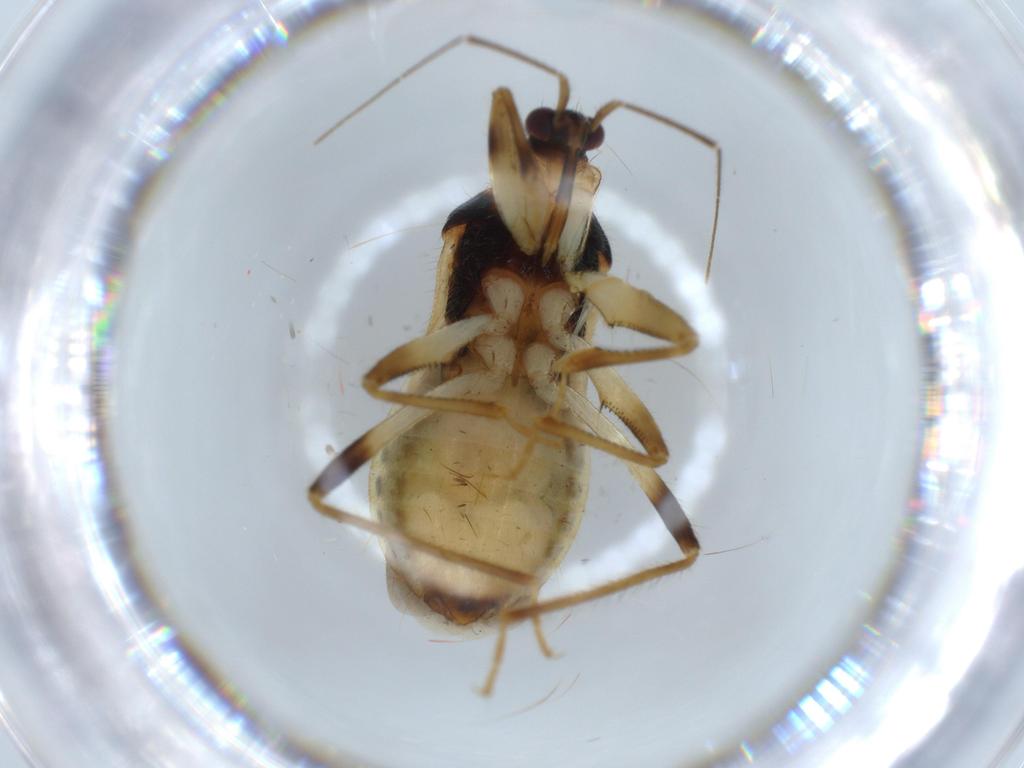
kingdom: Animalia
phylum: Arthropoda
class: Insecta
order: Hemiptera
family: Nabidae
